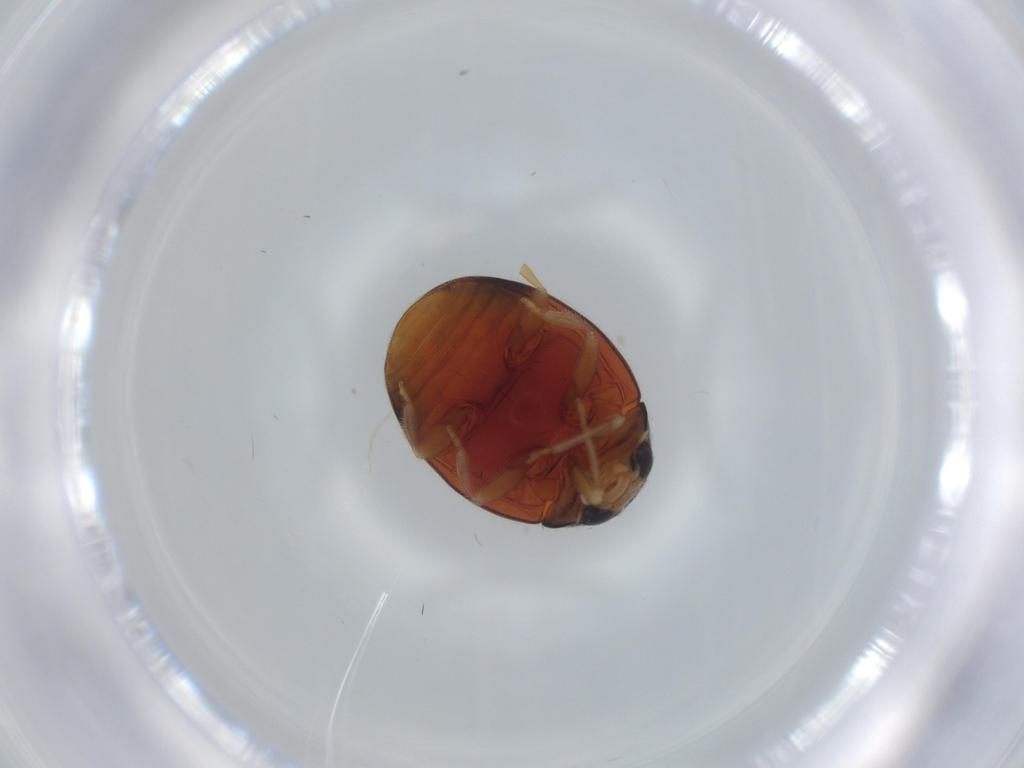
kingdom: Animalia
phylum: Arthropoda
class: Insecta
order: Coleoptera
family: Coccinellidae
